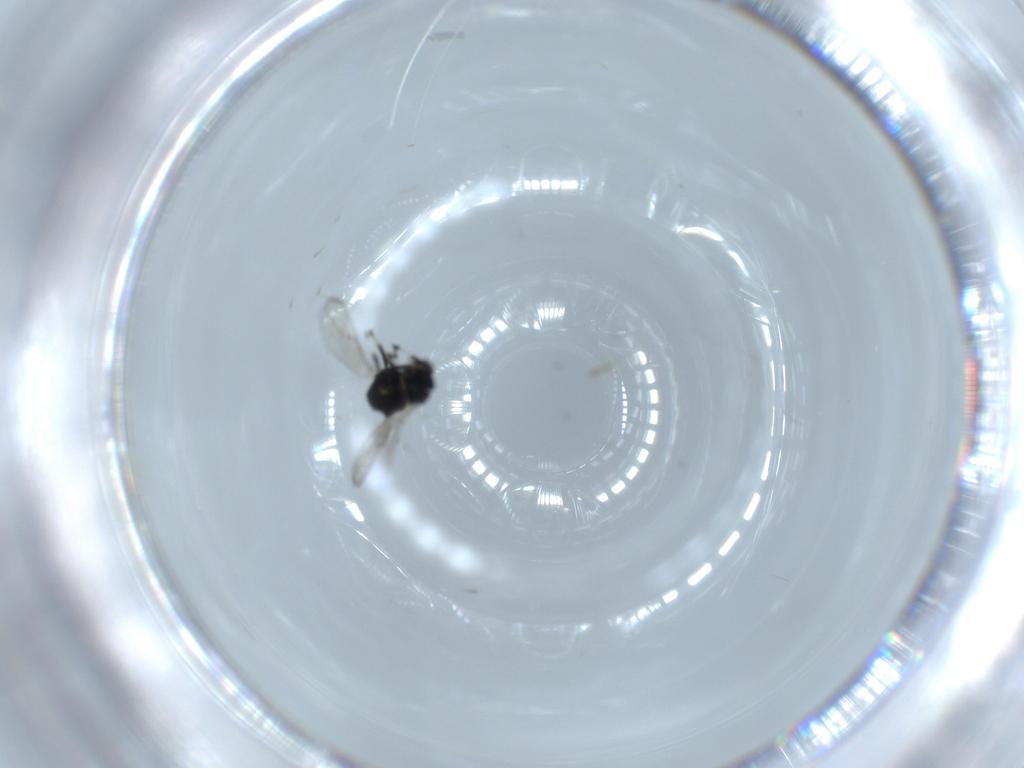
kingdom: Animalia
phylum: Arthropoda
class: Insecta
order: Hymenoptera
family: Eulophidae
